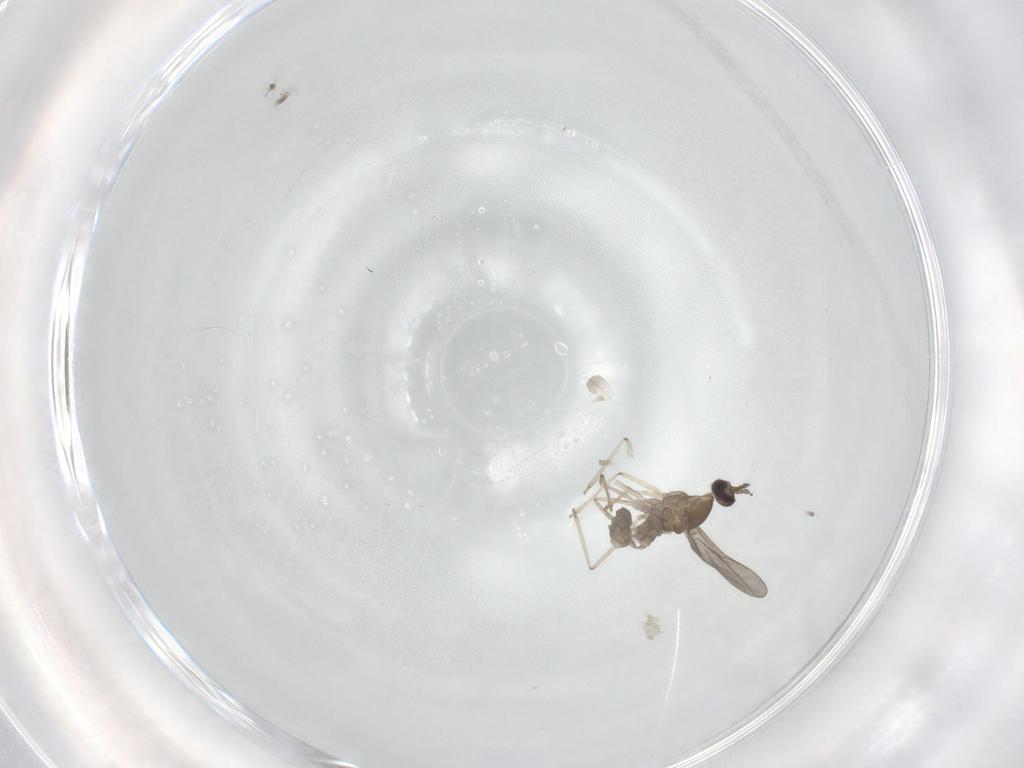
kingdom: Animalia
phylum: Arthropoda
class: Insecta
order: Diptera
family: Cecidomyiidae
